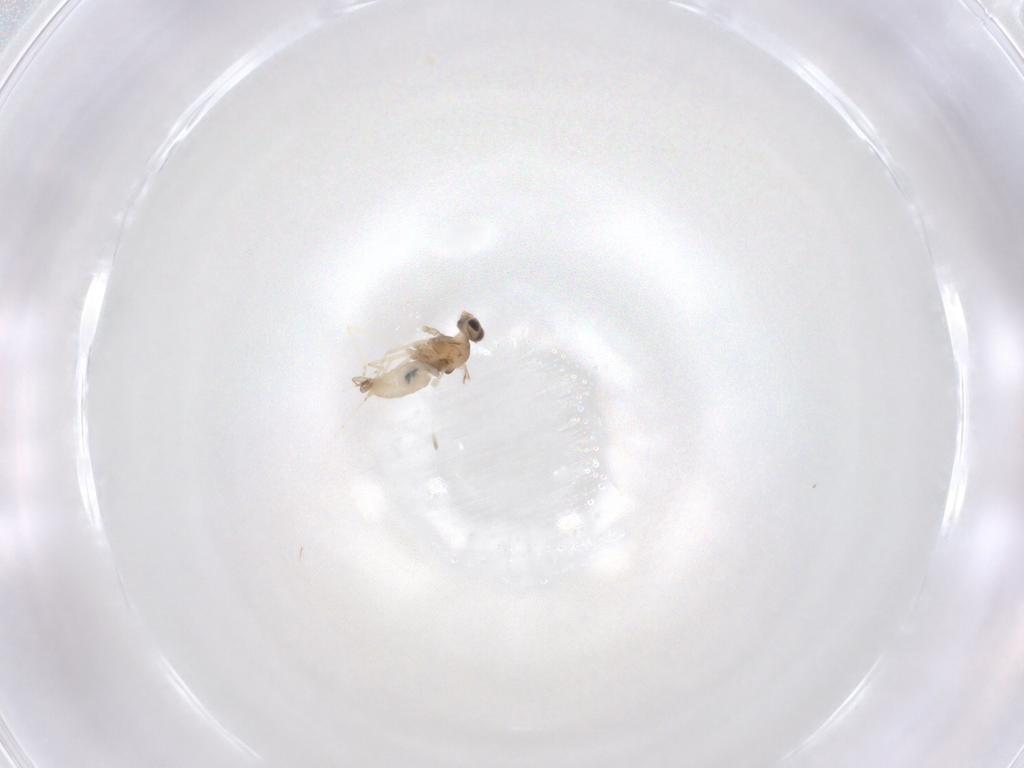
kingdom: Animalia
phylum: Arthropoda
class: Insecta
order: Diptera
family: Cecidomyiidae
